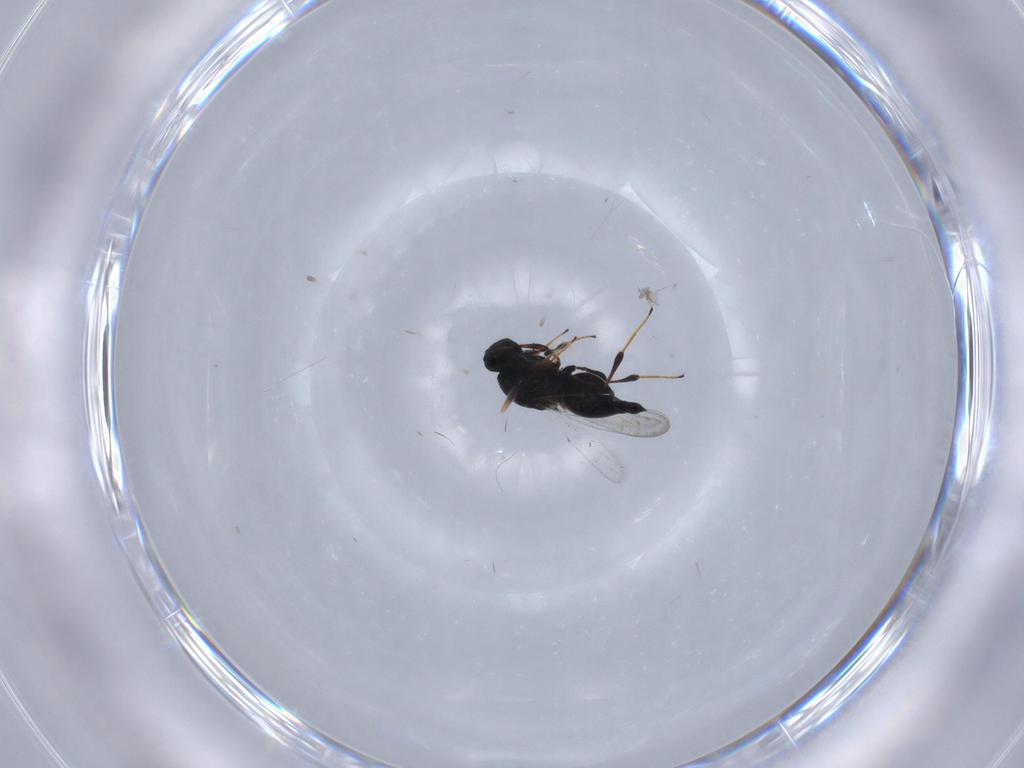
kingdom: Animalia
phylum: Arthropoda
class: Insecta
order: Hymenoptera
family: Platygastridae
